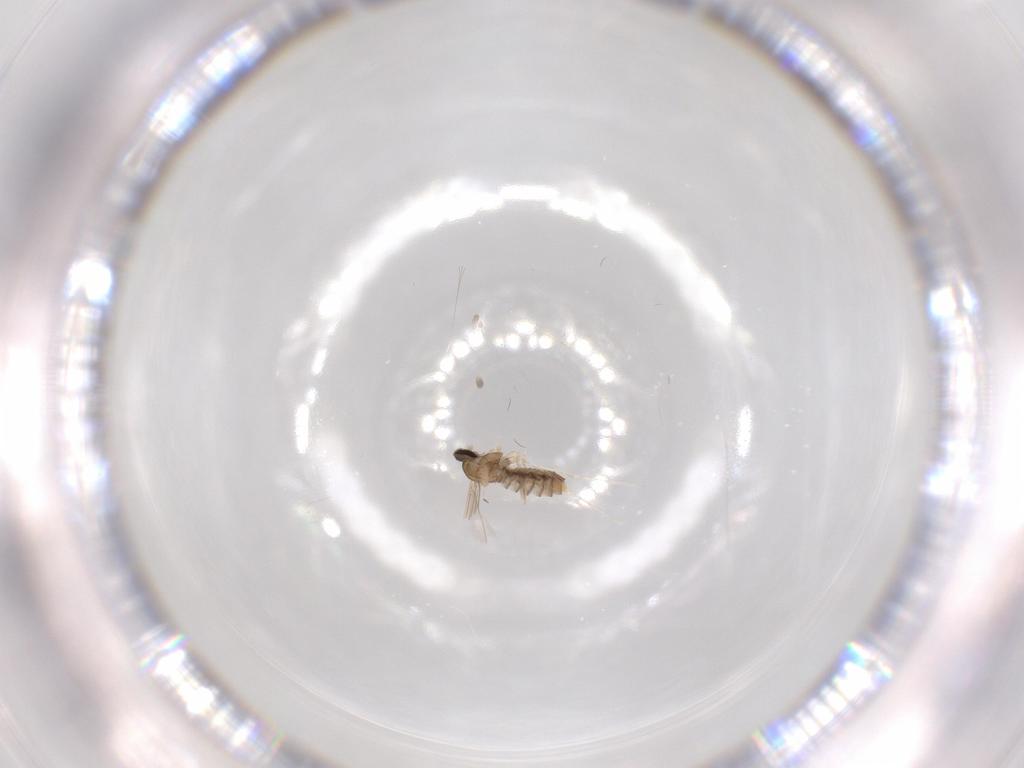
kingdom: Animalia
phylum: Arthropoda
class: Insecta
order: Diptera
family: Cecidomyiidae
